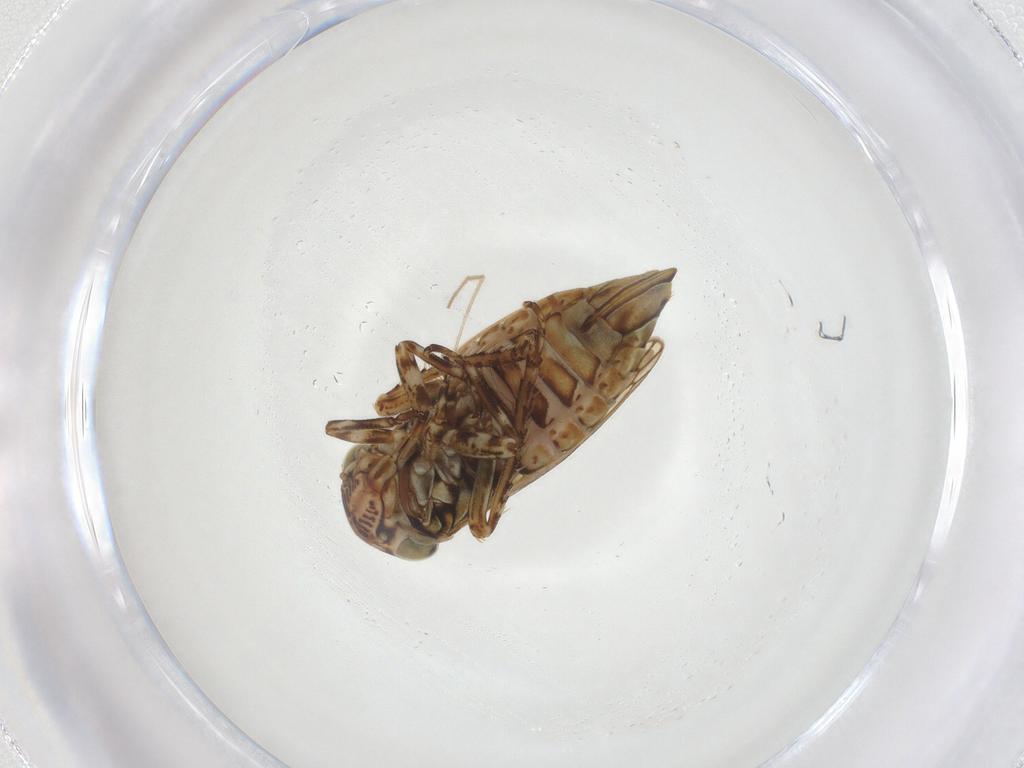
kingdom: Animalia
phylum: Arthropoda
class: Insecta
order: Hemiptera
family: Cicadellidae
